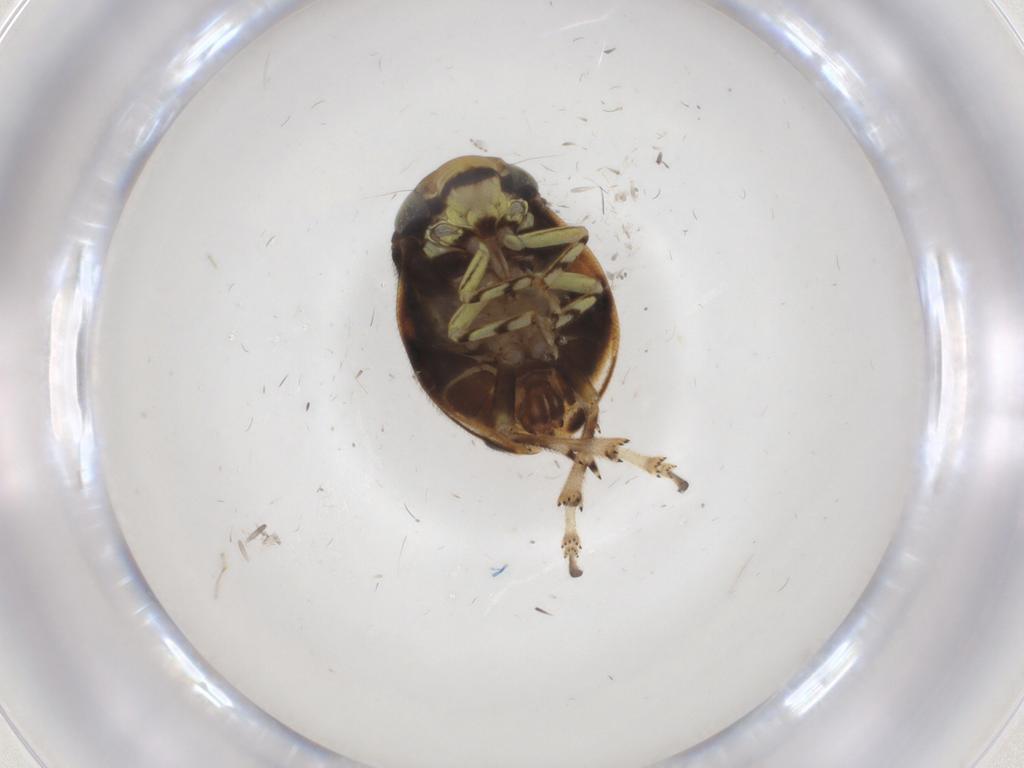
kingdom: Animalia
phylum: Arthropoda
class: Insecta
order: Hemiptera
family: Clastopteridae
